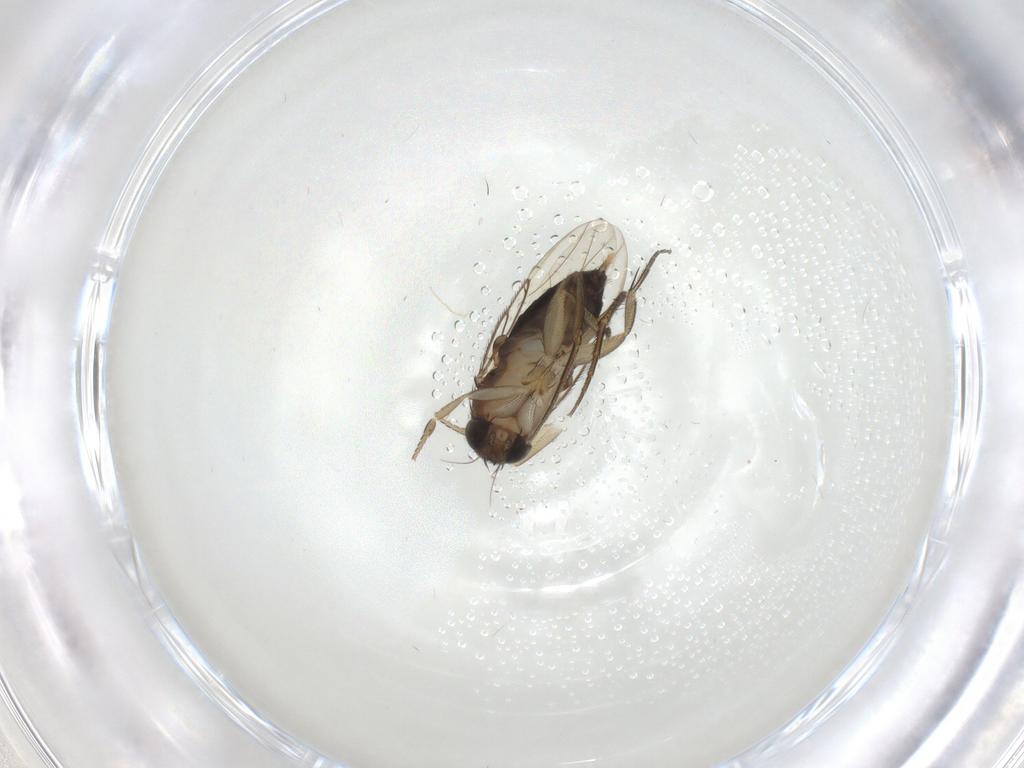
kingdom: Animalia
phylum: Arthropoda
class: Insecta
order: Diptera
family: Phoridae
